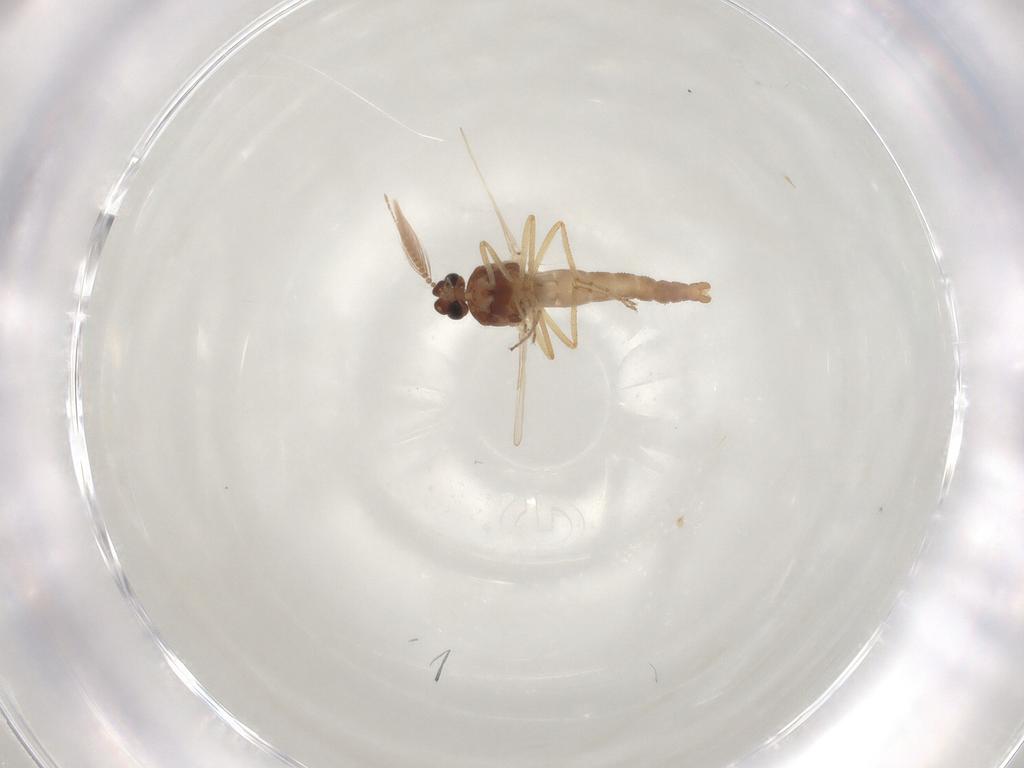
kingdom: Animalia
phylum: Arthropoda
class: Insecta
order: Diptera
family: Ceratopogonidae
